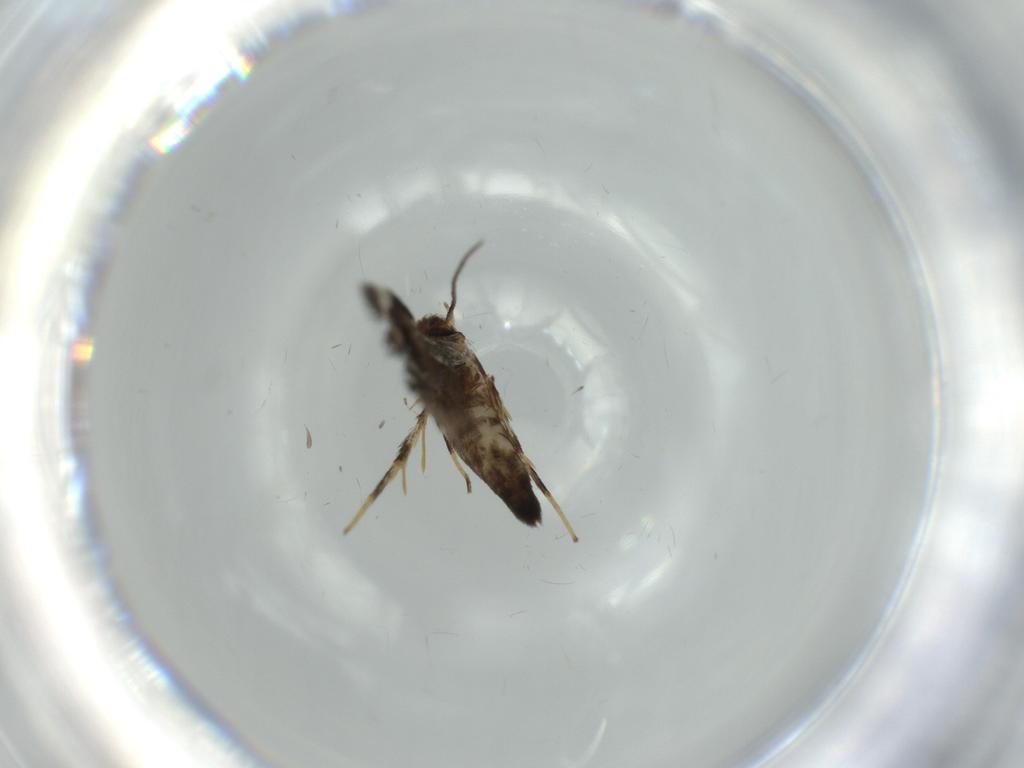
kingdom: Animalia
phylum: Arthropoda
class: Insecta
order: Lepidoptera
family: Cosmopterigidae
